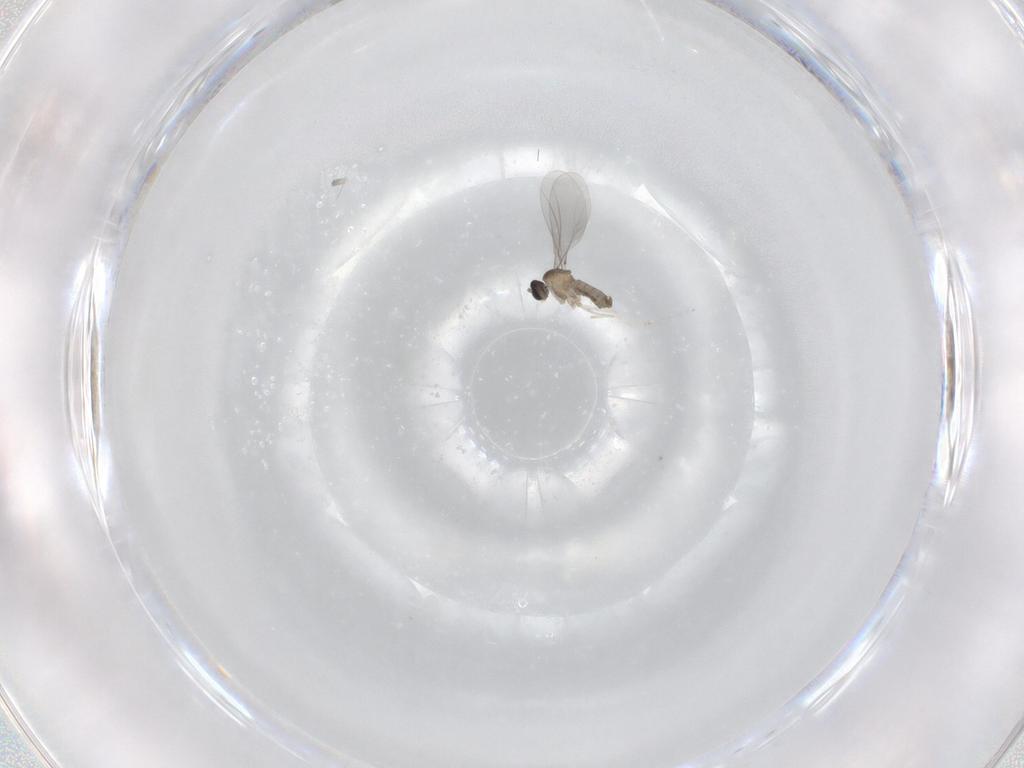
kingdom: Animalia
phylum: Arthropoda
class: Insecta
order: Diptera
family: Cecidomyiidae
